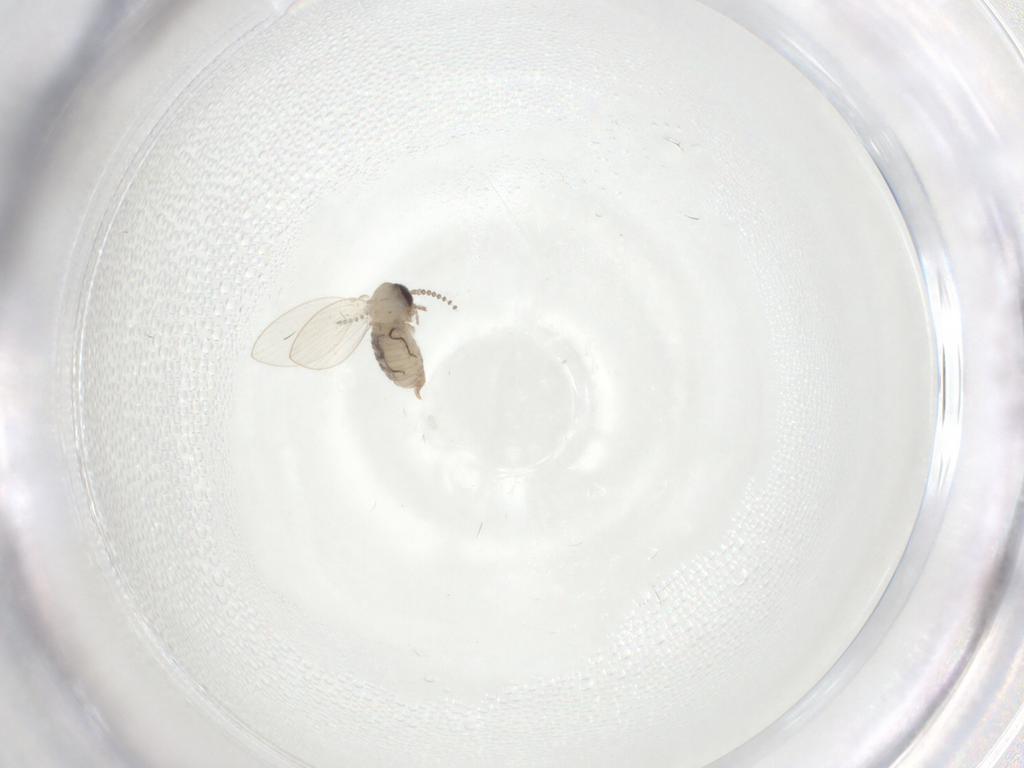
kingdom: Animalia
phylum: Arthropoda
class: Insecta
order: Diptera
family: Psychodidae
